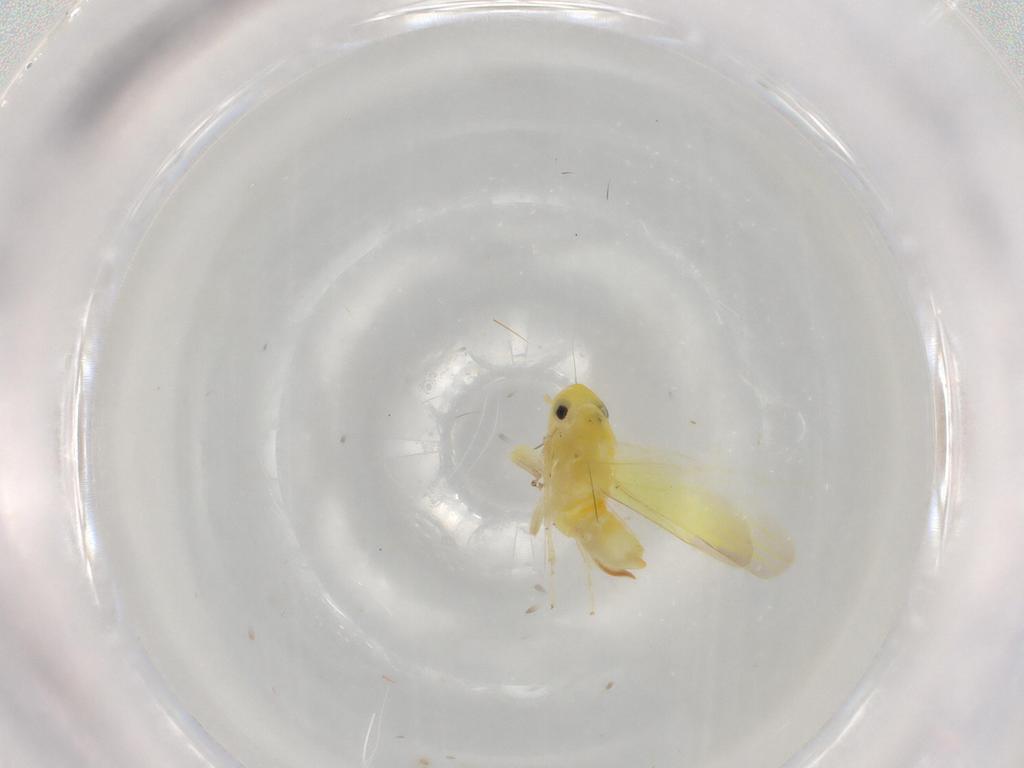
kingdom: Animalia
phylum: Arthropoda
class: Insecta
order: Hemiptera
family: Cicadellidae
